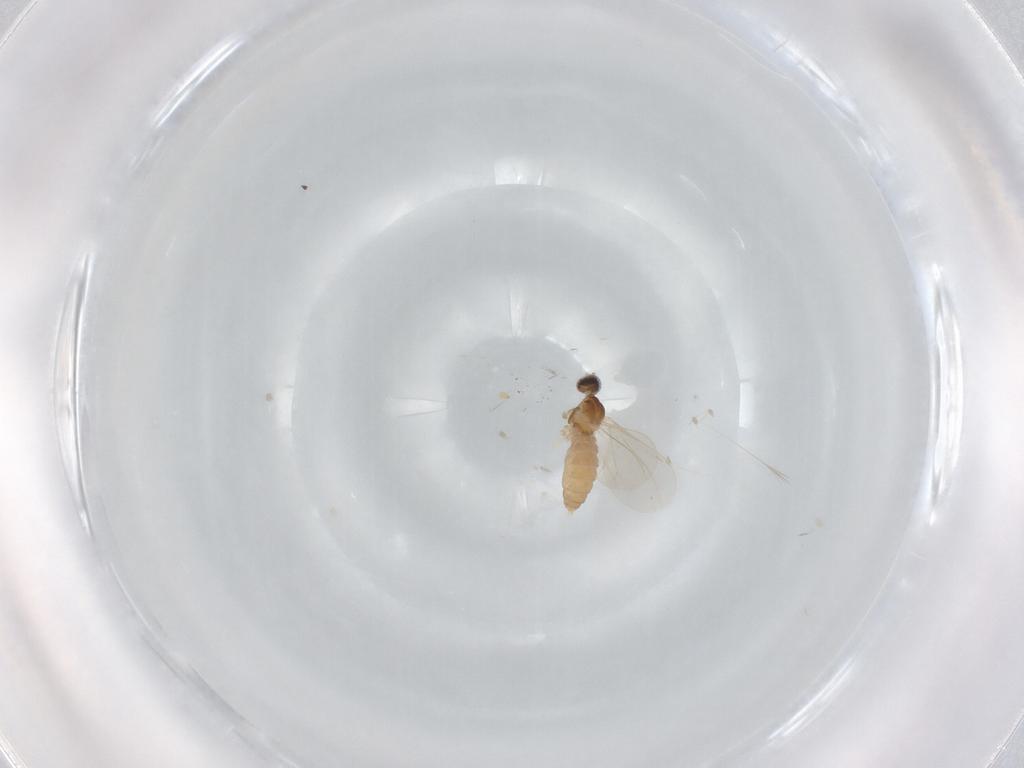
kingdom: Animalia
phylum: Arthropoda
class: Insecta
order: Diptera
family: Cecidomyiidae
